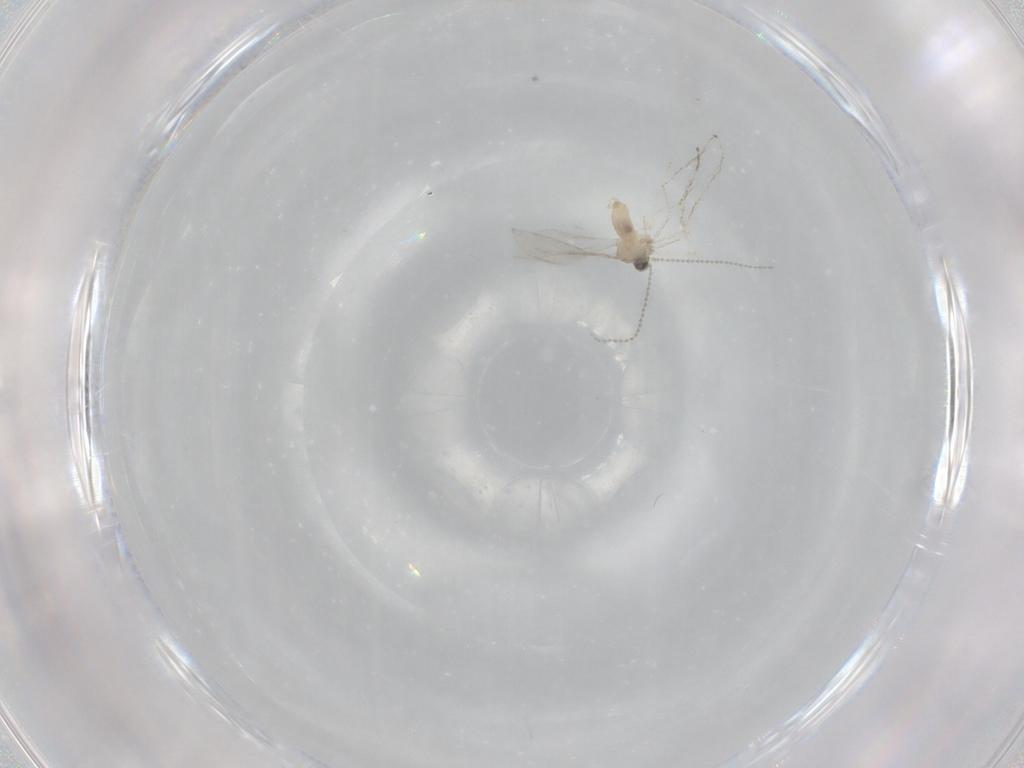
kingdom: Animalia
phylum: Arthropoda
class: Insecta
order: Diptera
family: Cecidomyiidae
